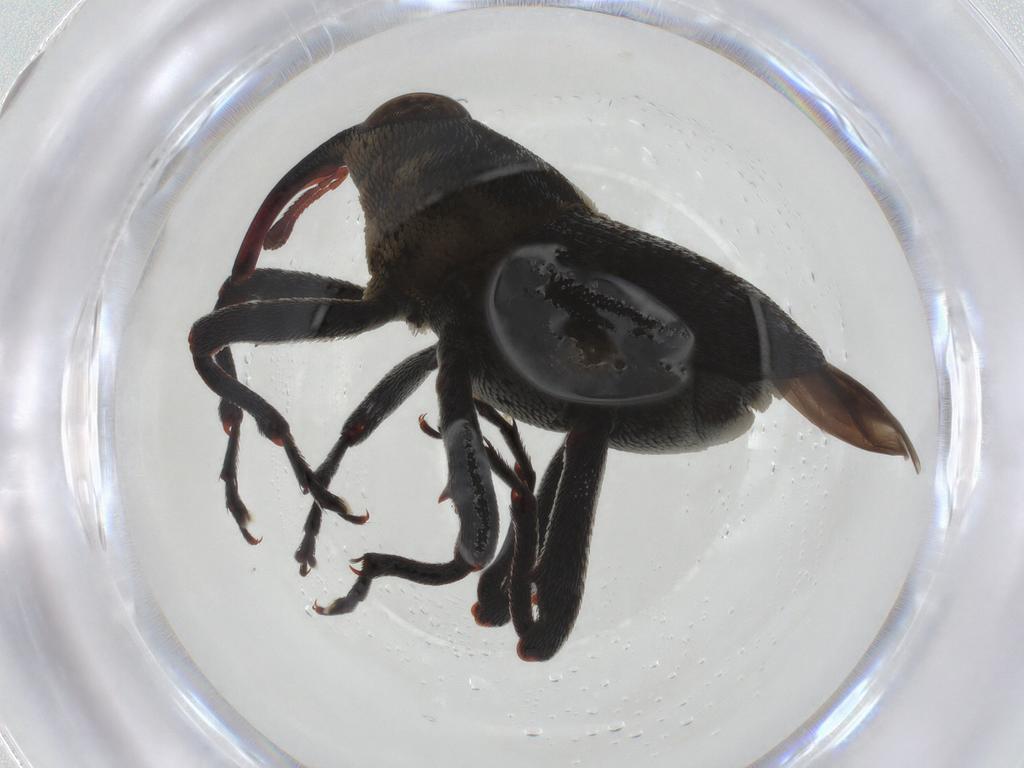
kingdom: Animalia
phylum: Arthropoda
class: Insecta
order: Coleoptera
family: Curculionidae
